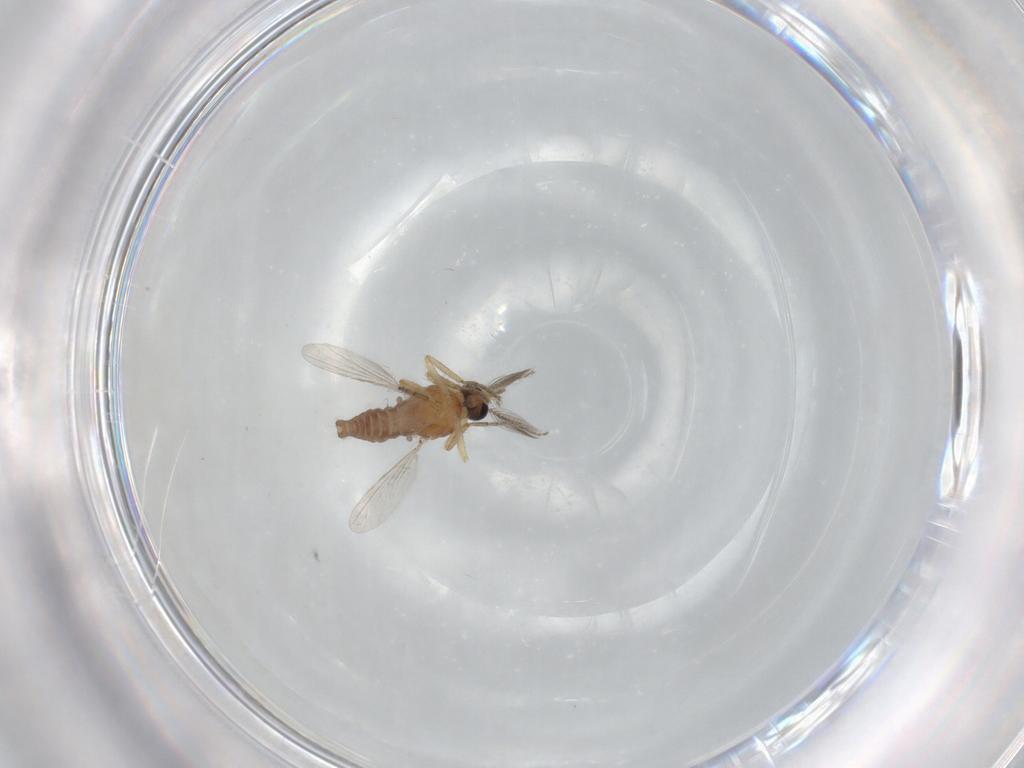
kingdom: Animalia
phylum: Arthropoda
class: Insecta
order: Diptera
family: Ceratopogonidae
